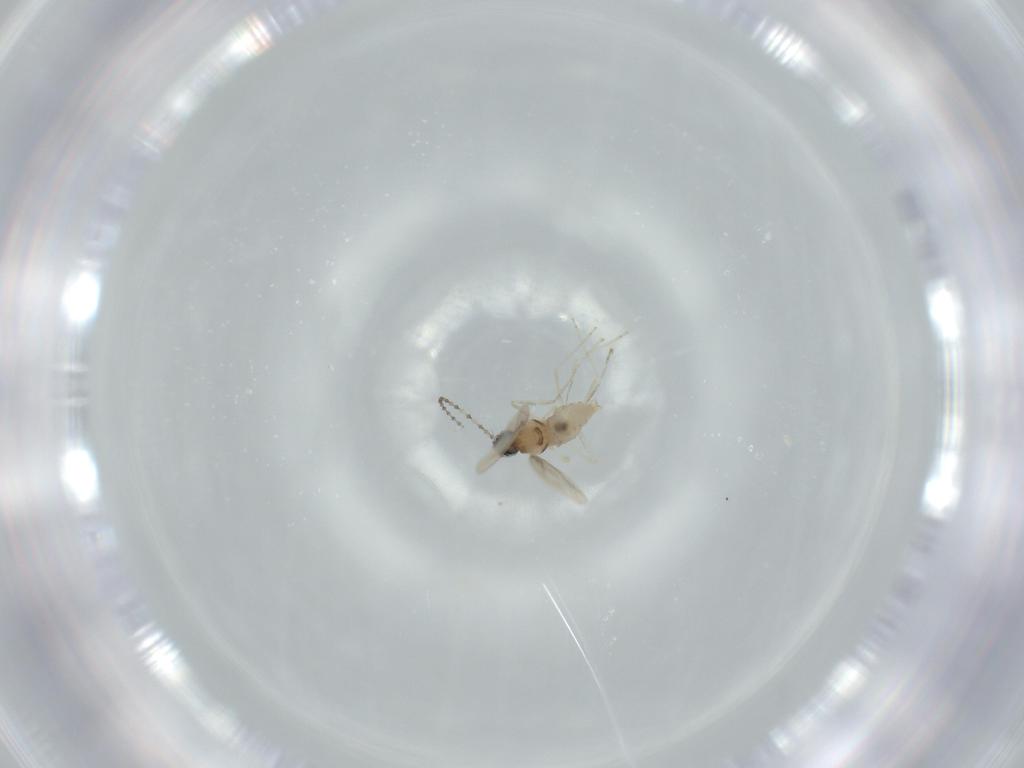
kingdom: Animalia
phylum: Arthropoda
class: Insecta
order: Diptera
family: Cecidomyiidae
